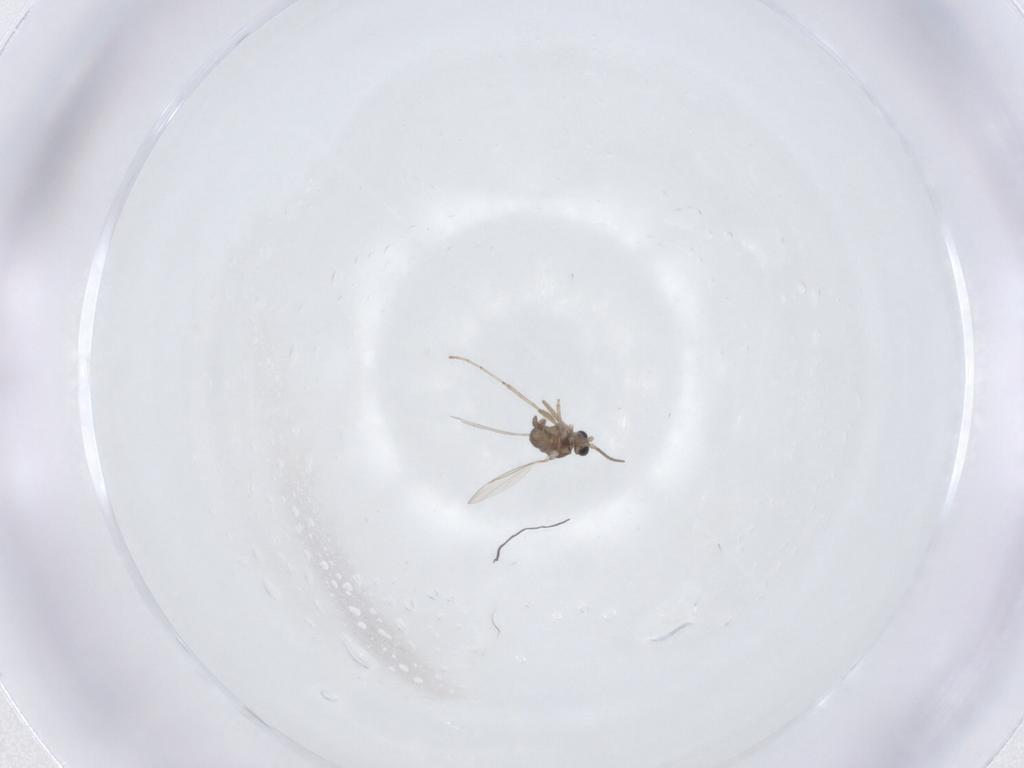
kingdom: Animalia
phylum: Arthropoda
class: Insecta
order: Diptera
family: Cecidomyiidae
